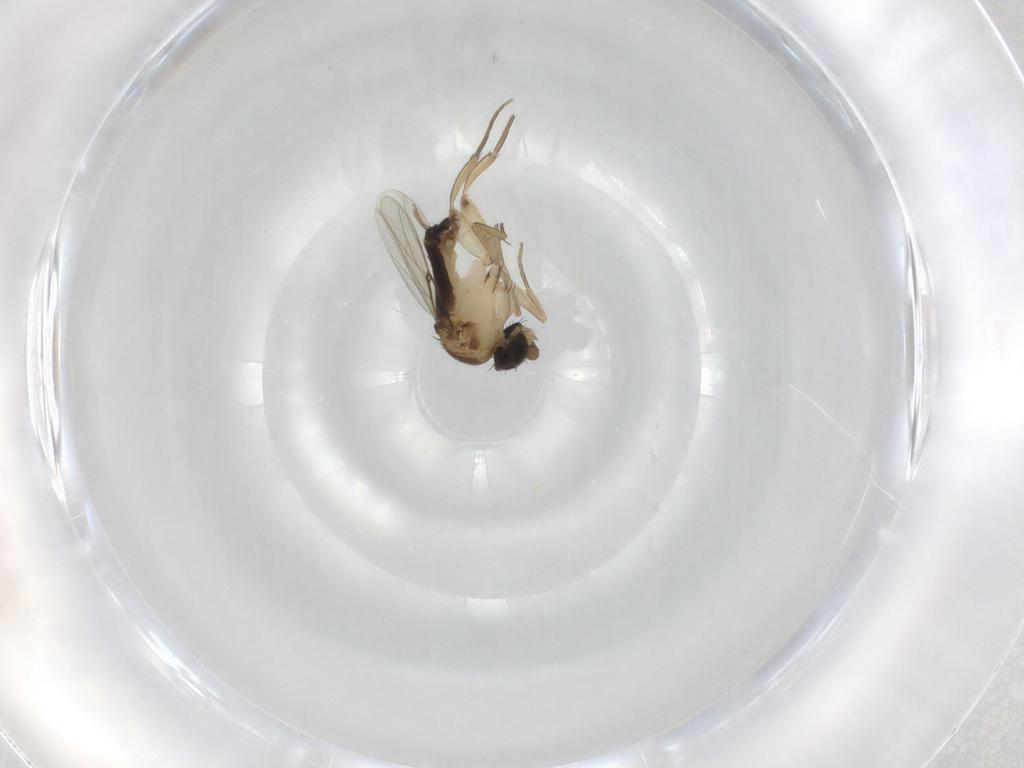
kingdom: Animalia
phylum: Arthropoda
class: Insecta
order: Diptera
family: Phoridae
